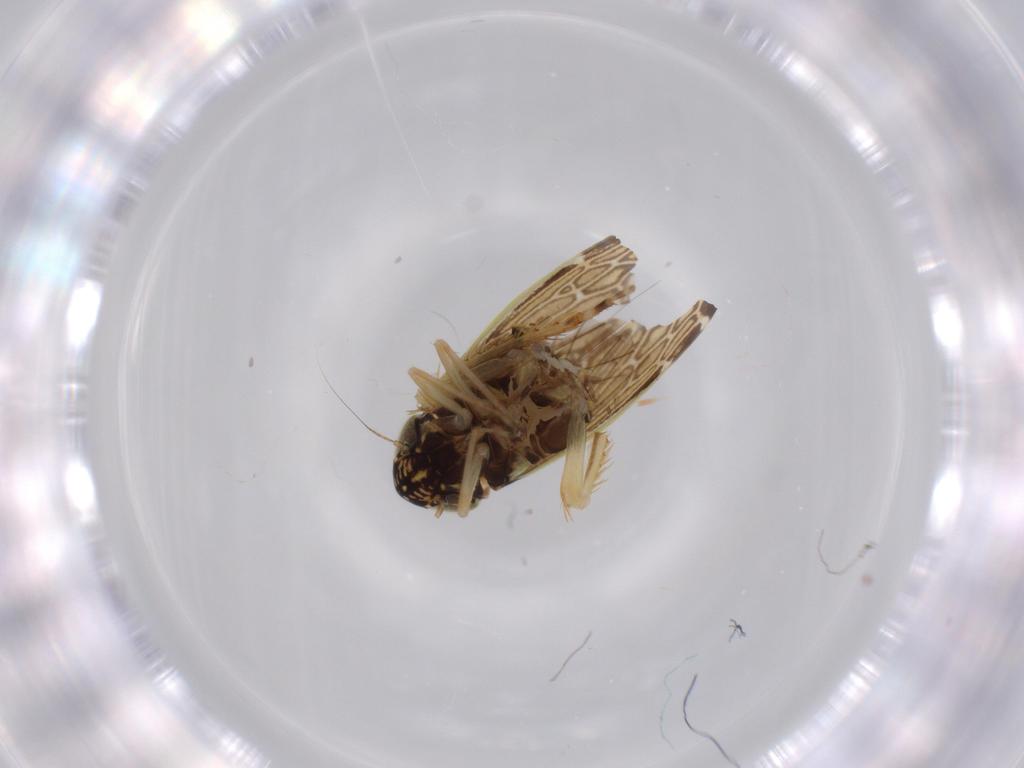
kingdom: Animalia
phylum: Arthropoda
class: Insecta
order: Hemiptera
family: Cicadellidae
